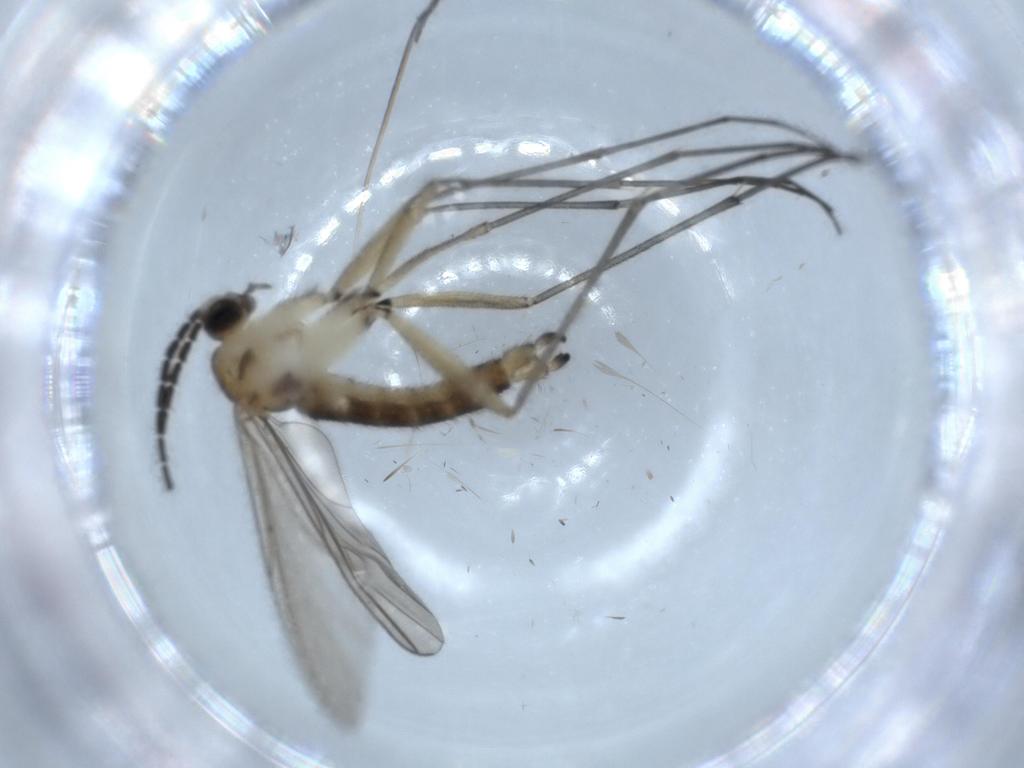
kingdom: Animalia
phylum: Arthropoda
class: Insecta
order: Diptera
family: Sciaridae
